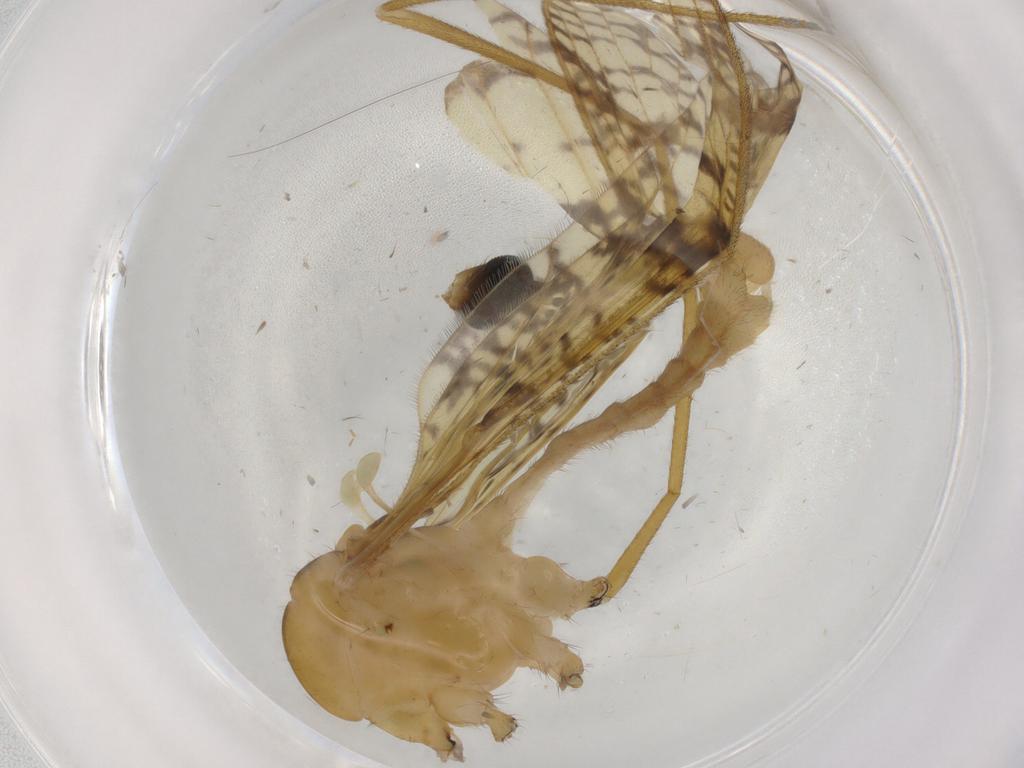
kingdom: Animalia
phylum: Arthropoda
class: Insecta
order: Diptera
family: Limoniidae
